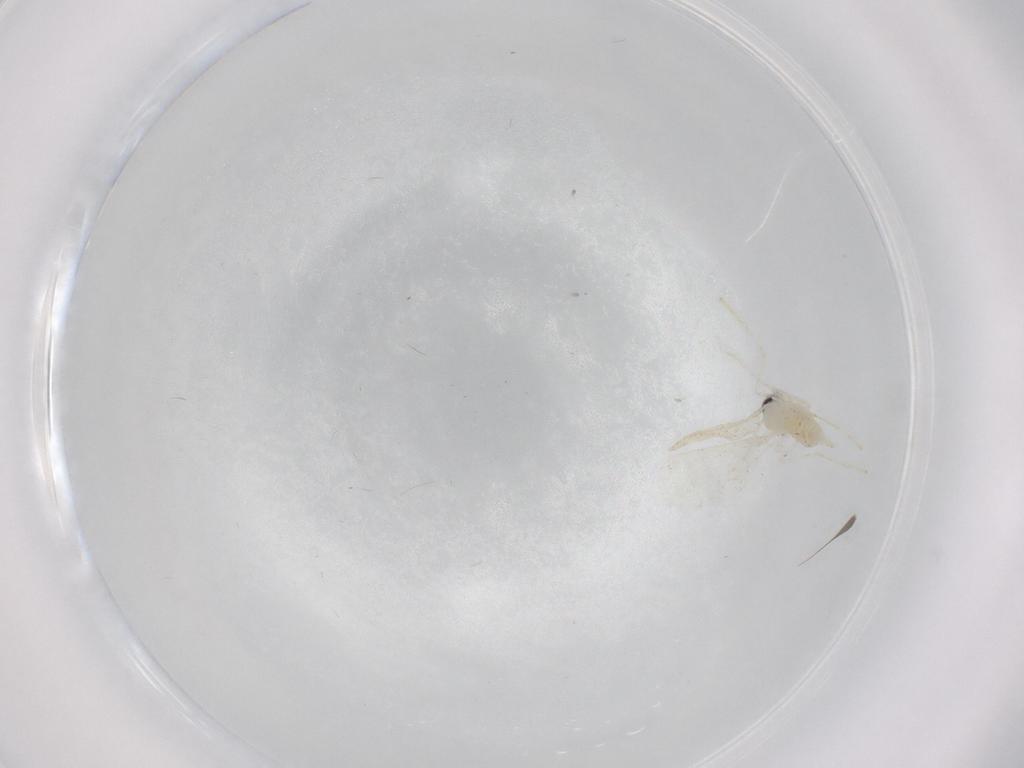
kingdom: Animalia
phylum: Arthropoda
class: Insecta
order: Diptera
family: Cecidomyiidae
